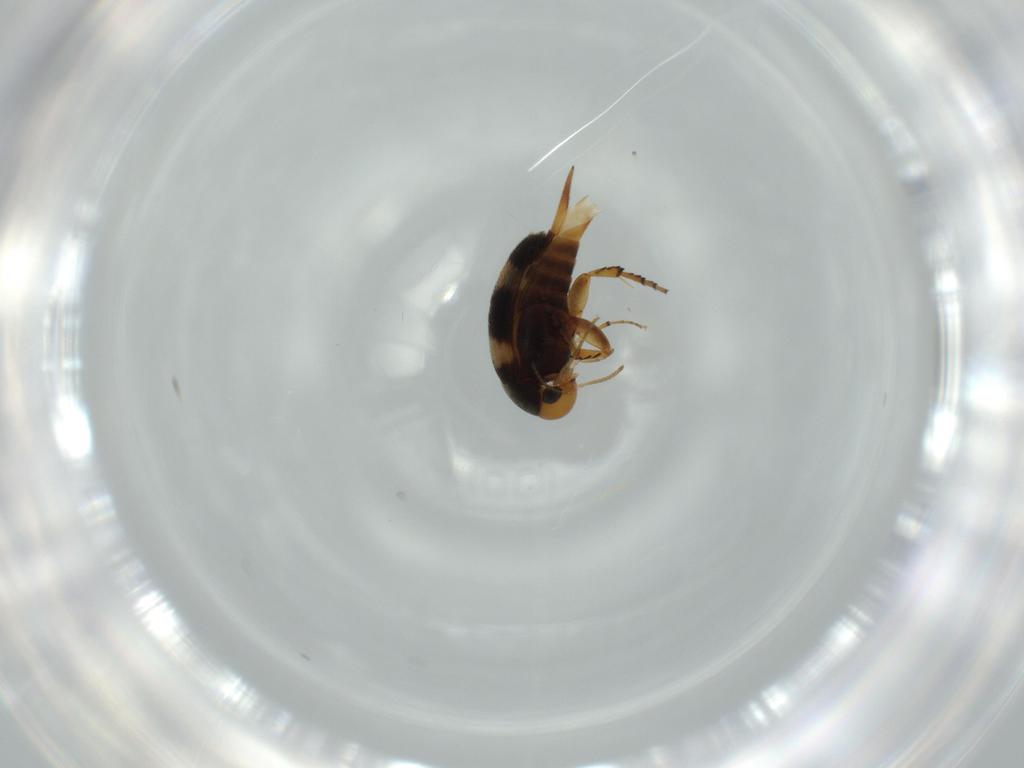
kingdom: Animalia
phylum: Arthropoda
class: Insecta
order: Coleoptera
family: Mordellidae
